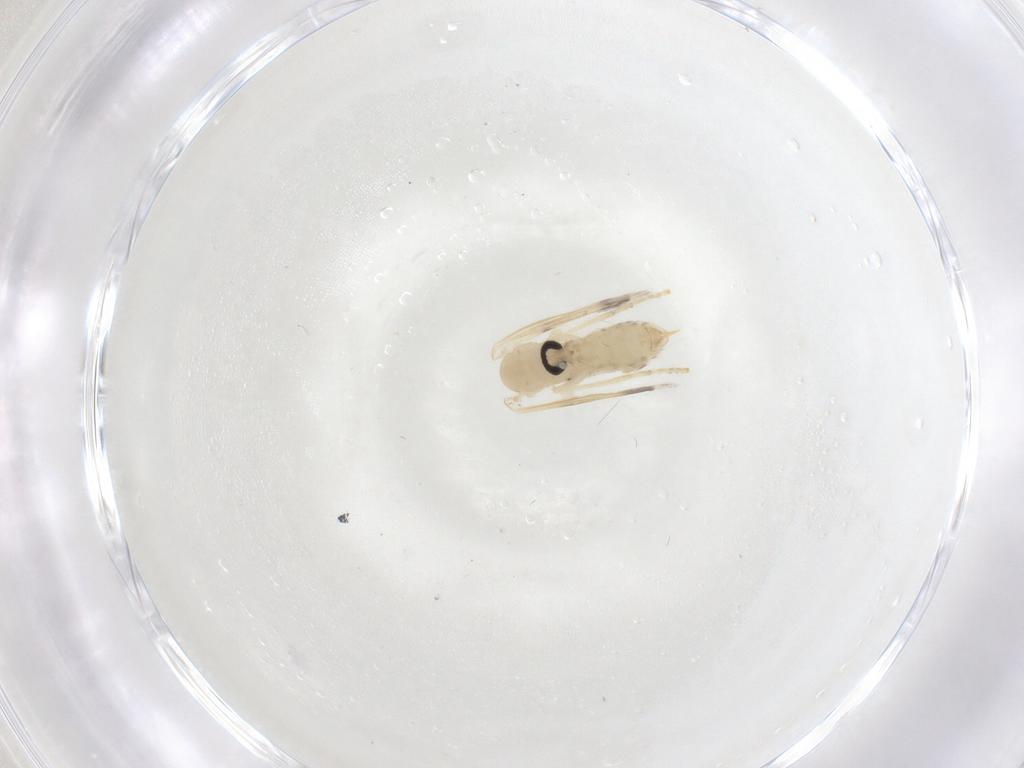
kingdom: Animalia
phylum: Arthropoda
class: Insecta
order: Diptera
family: Psychodidae
